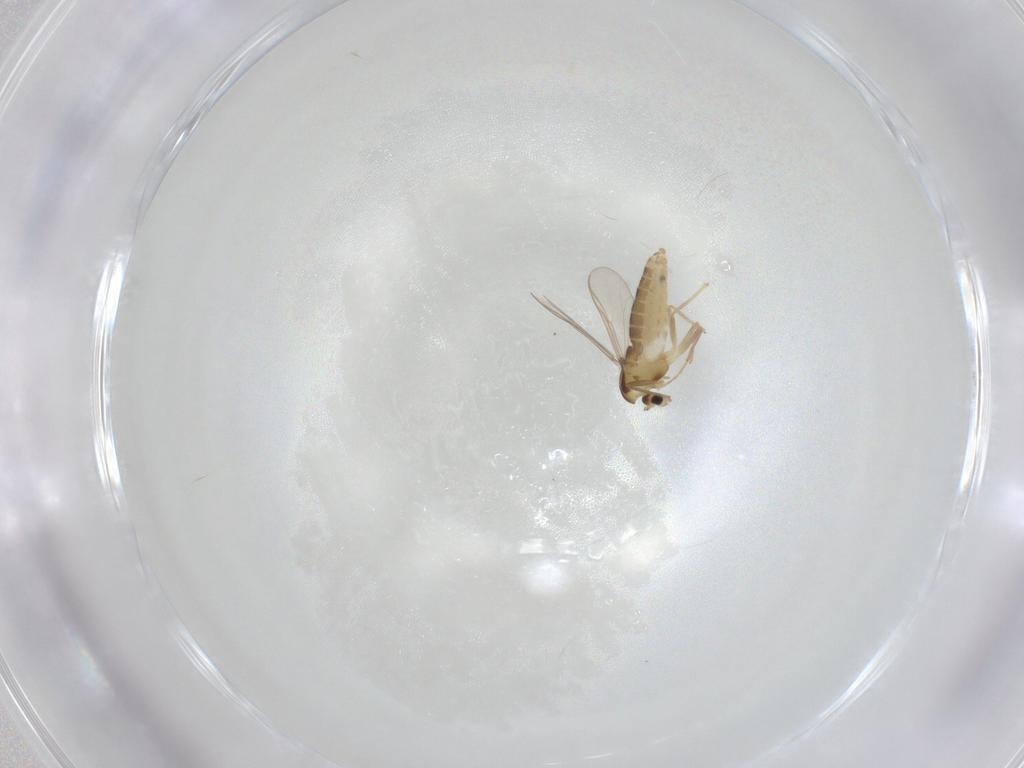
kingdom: Animalia
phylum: Arthropoda
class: Insecta
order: Diptera
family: Chironomidae
